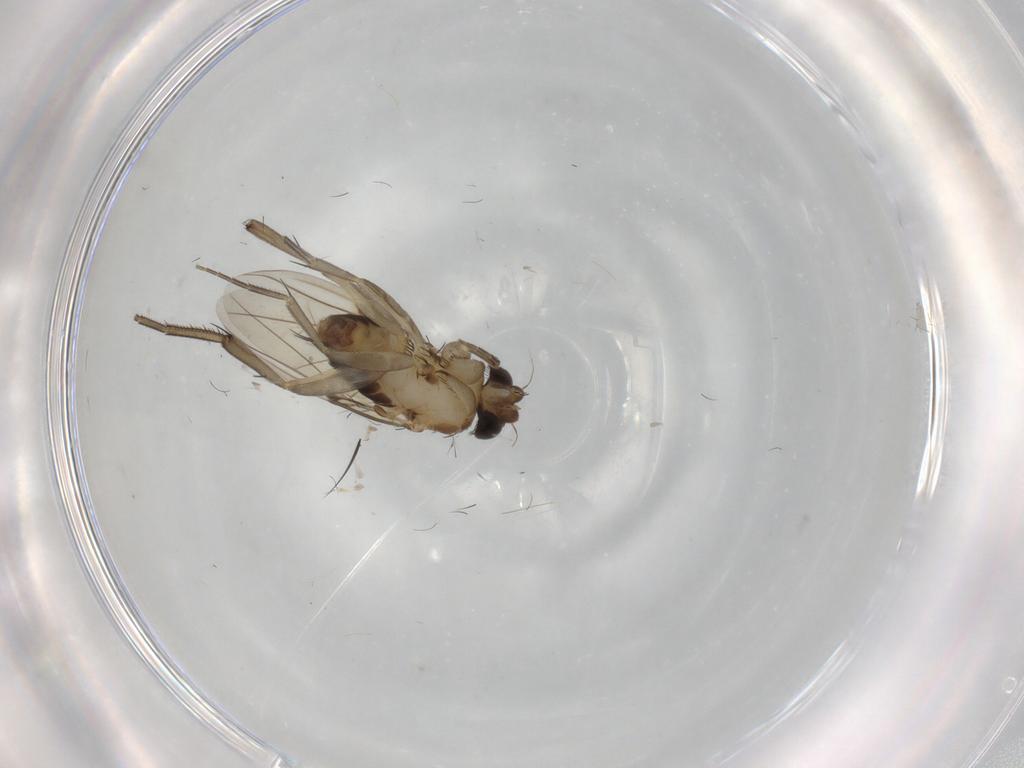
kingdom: Animalia
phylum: Arthropoda
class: Insecta
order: Diptera
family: Phoridae
